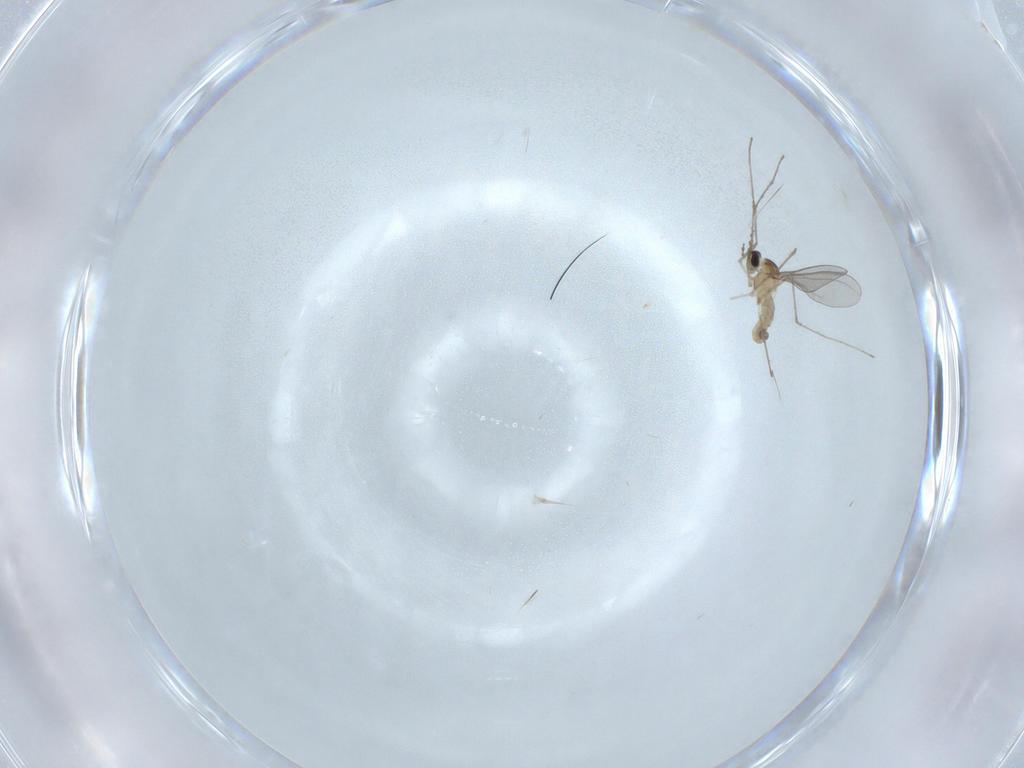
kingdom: Animalia
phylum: Arthropoda
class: Insecta
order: Diptera
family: Cecidomyiidae
